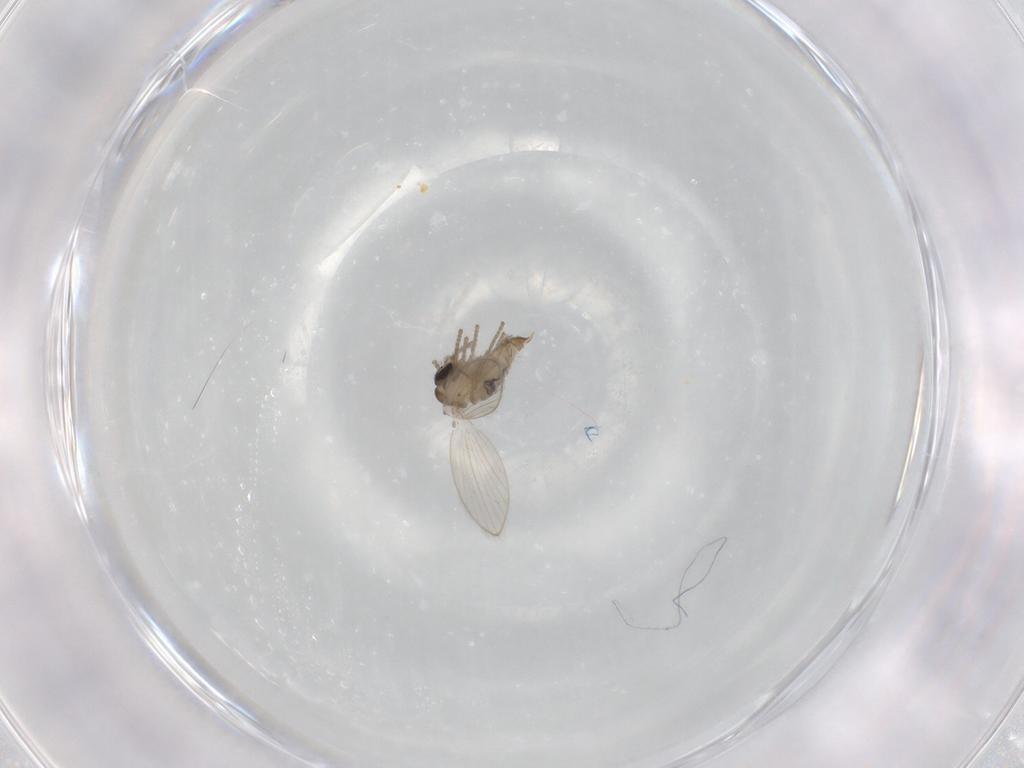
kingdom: Animalia
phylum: Arthropoda
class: Insecta
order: Diptera
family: Psychodidae
